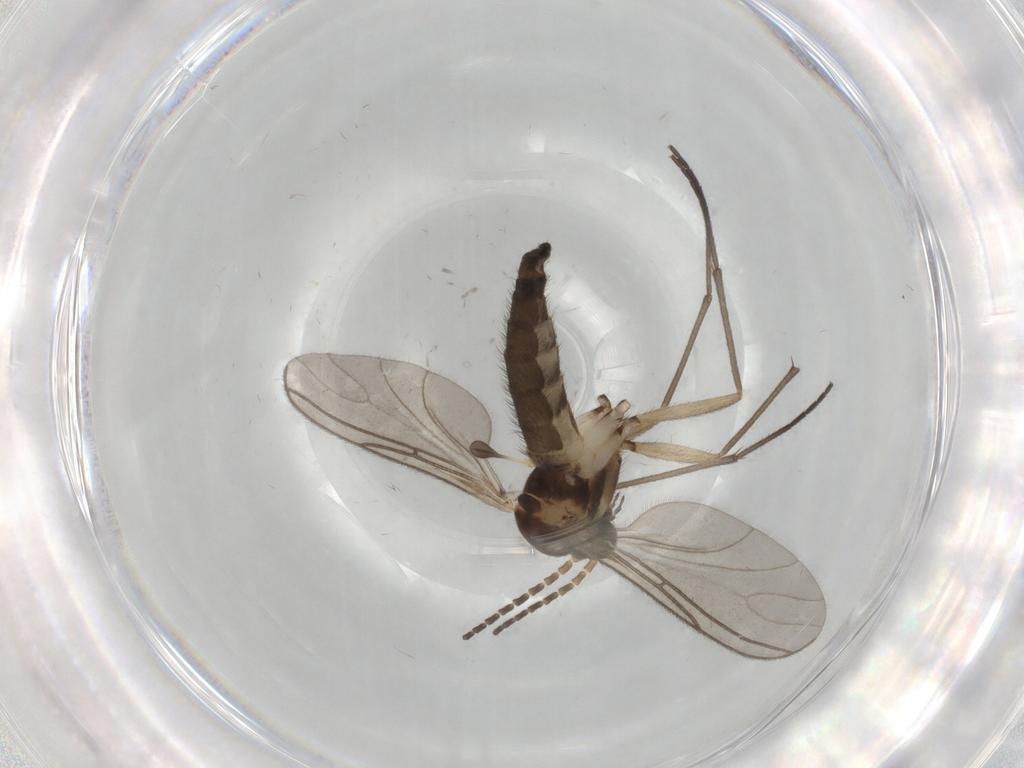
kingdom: Animalia
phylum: Arthropoda
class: Insecta
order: Diptera
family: Sciaridae
